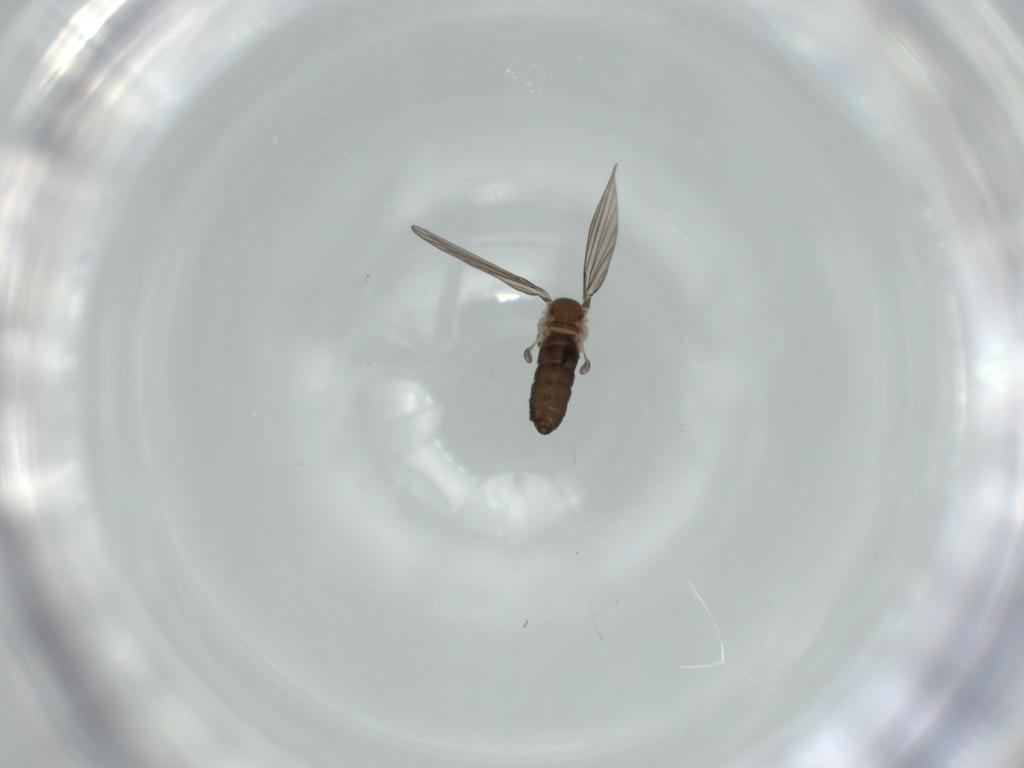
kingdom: Animalia
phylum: Arthropoda
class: Insecta
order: Diptera
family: Psychodidae
